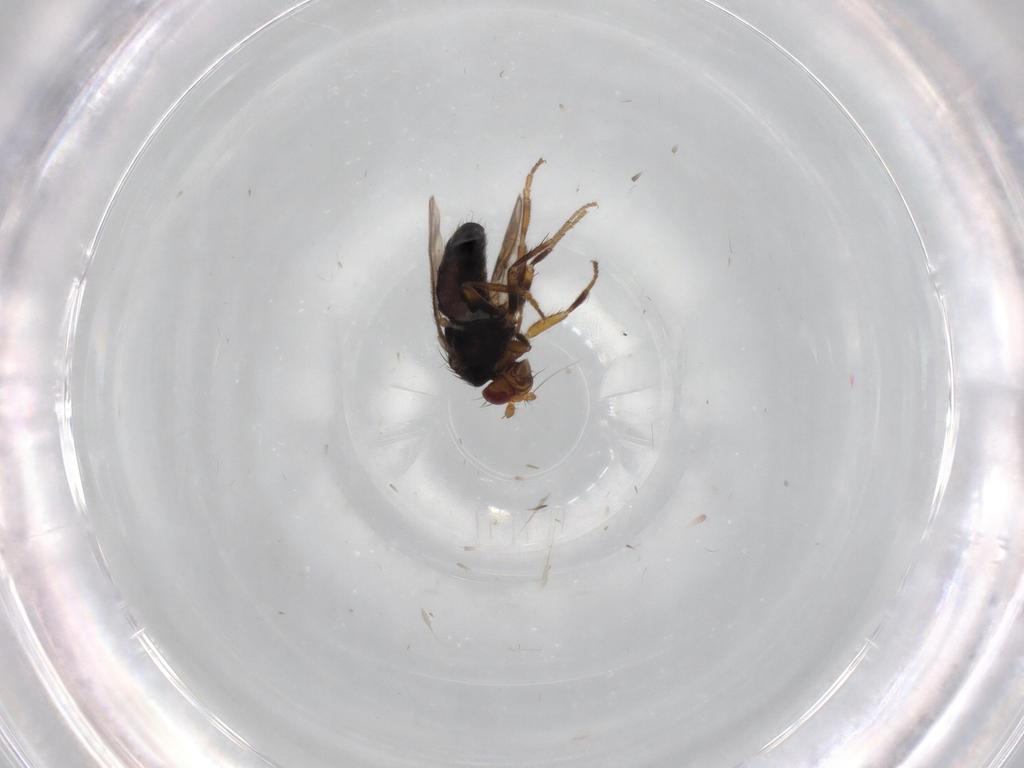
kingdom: Animalia
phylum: Arthropoda
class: Insecta
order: Diptera
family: Sphaeroceridae
